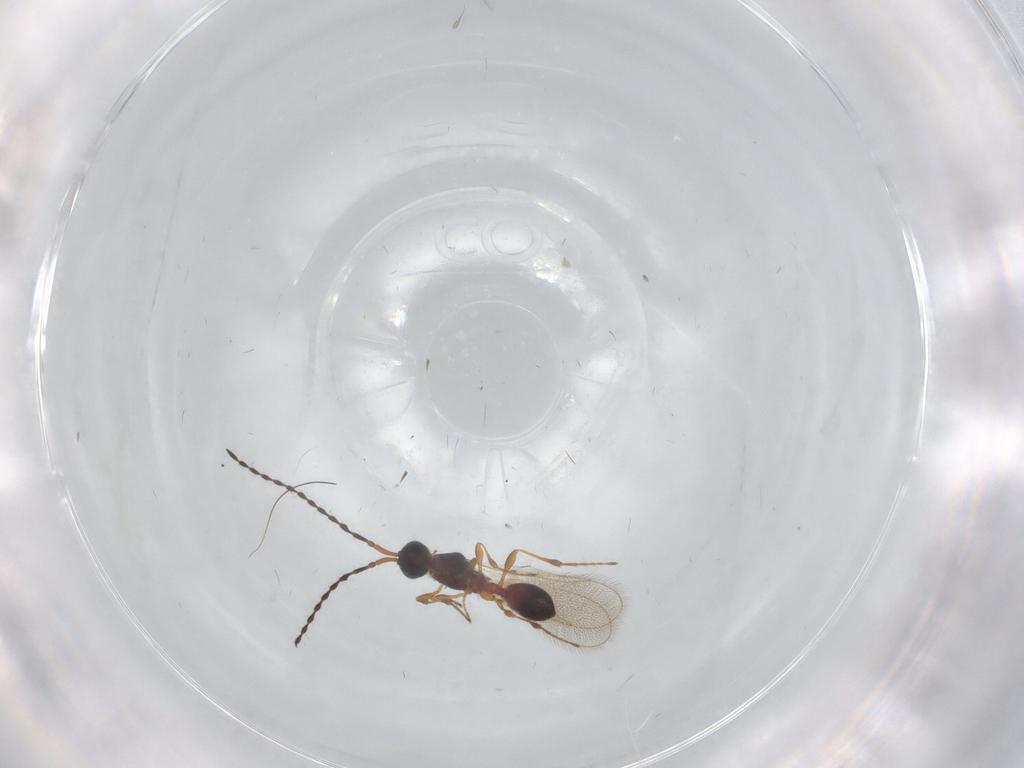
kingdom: Animalia
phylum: Arthropoda
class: Insecta
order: Hymenoptera
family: Diapriidae
